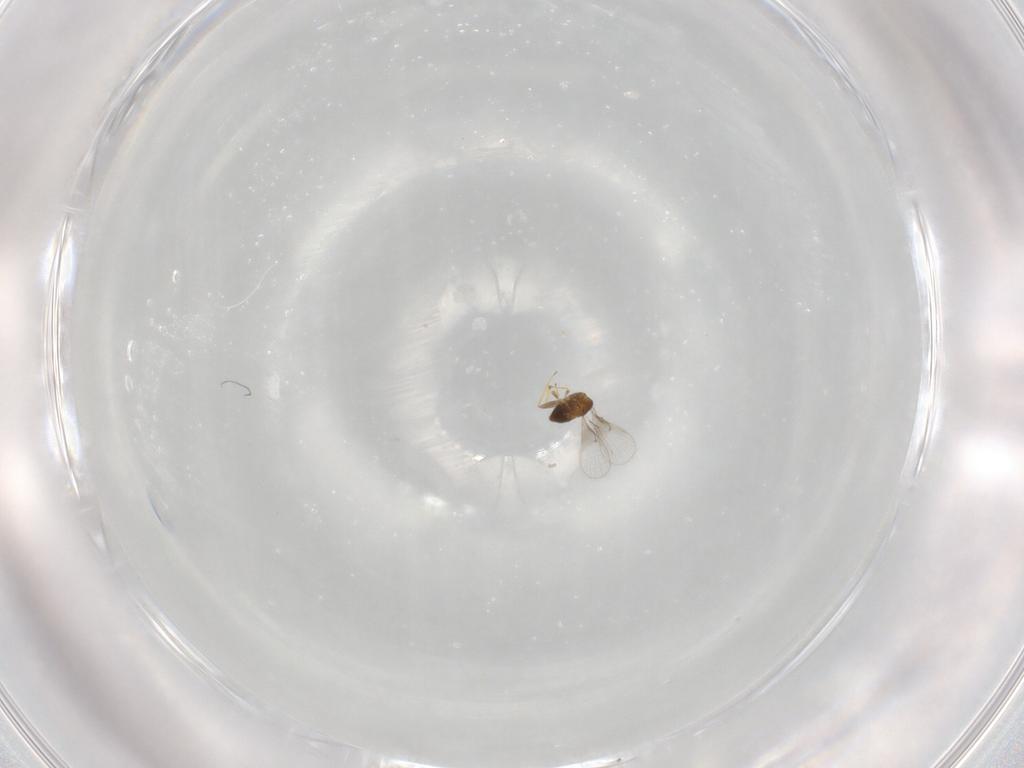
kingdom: Animalia
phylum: Arthropoda
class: Insecta
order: Hymenoptera
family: Trichogrammatidae
